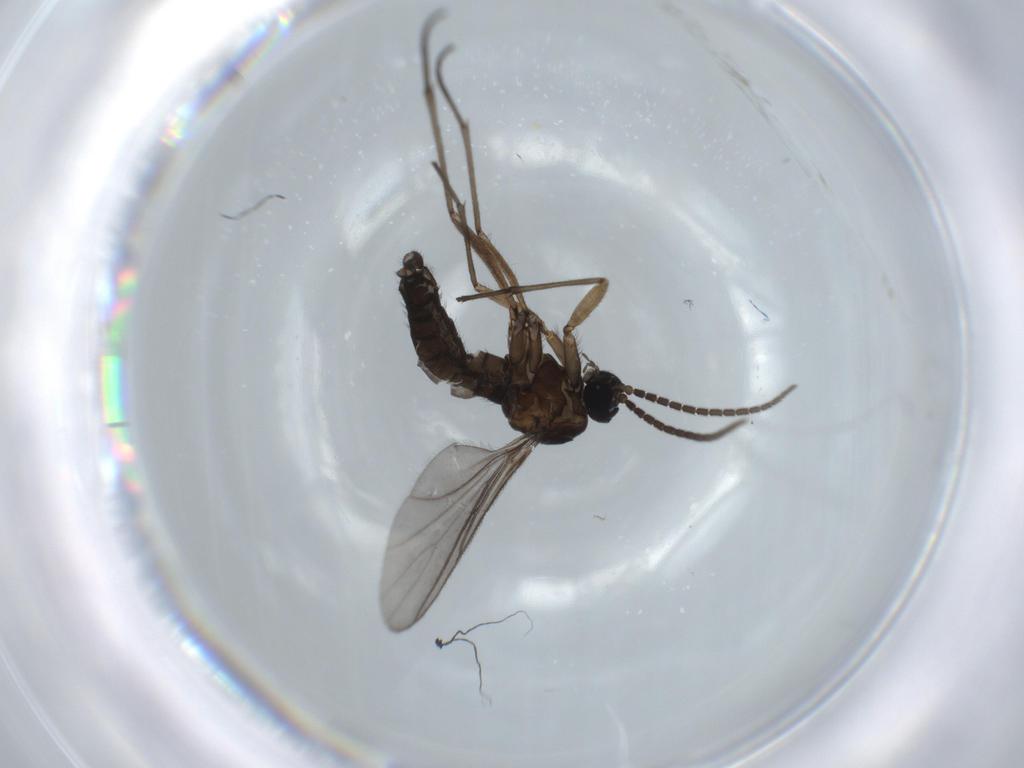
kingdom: Animalia
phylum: Arthropoda
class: Insecta
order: Diptera
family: Sciaridae
